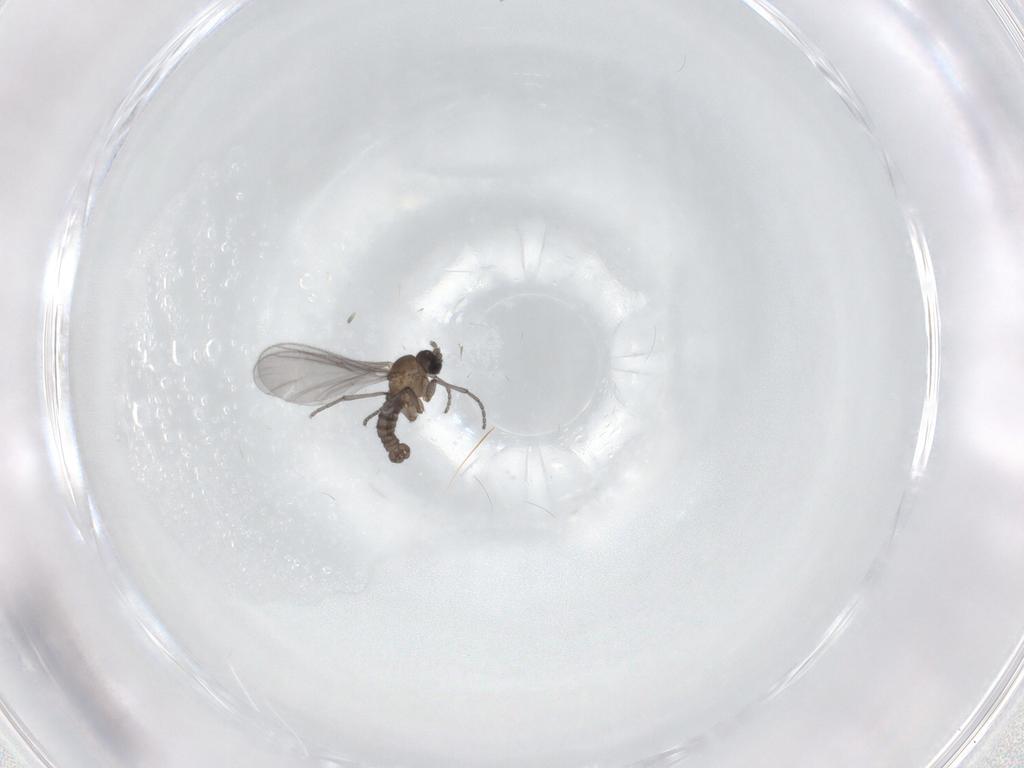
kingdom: Animalia
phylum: Arthropoda
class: Insecta
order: Diptera
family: Sciaridae
